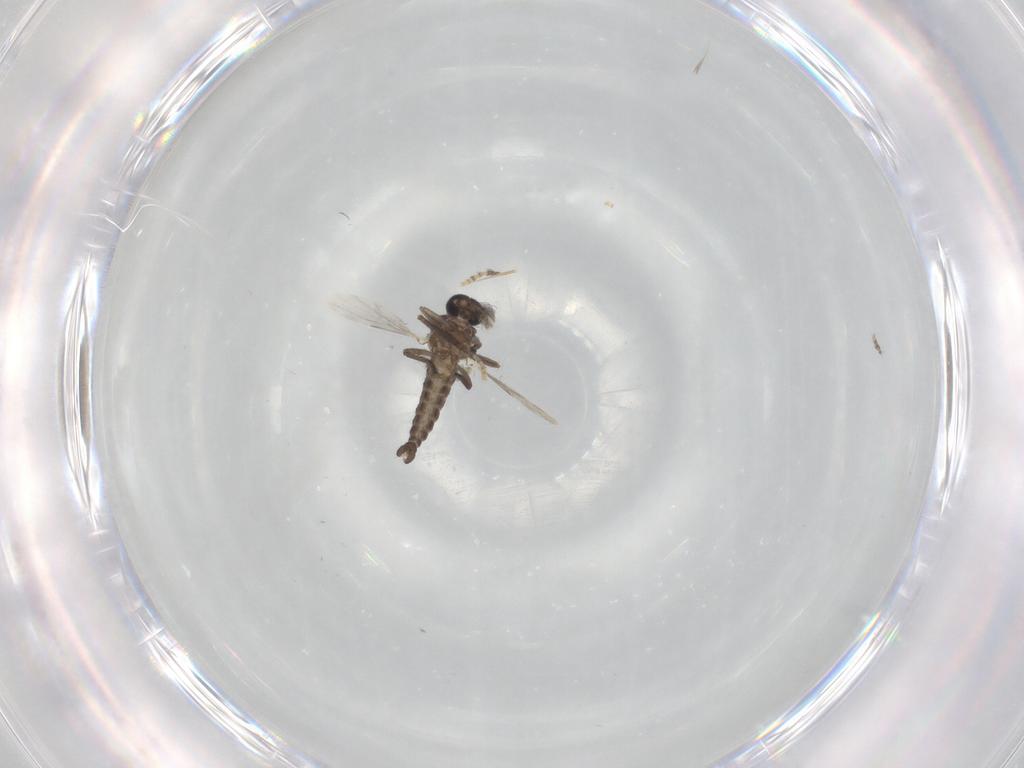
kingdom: Animalia
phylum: Arthropoda
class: Insecta
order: Diptera
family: Ceratopogonidae
